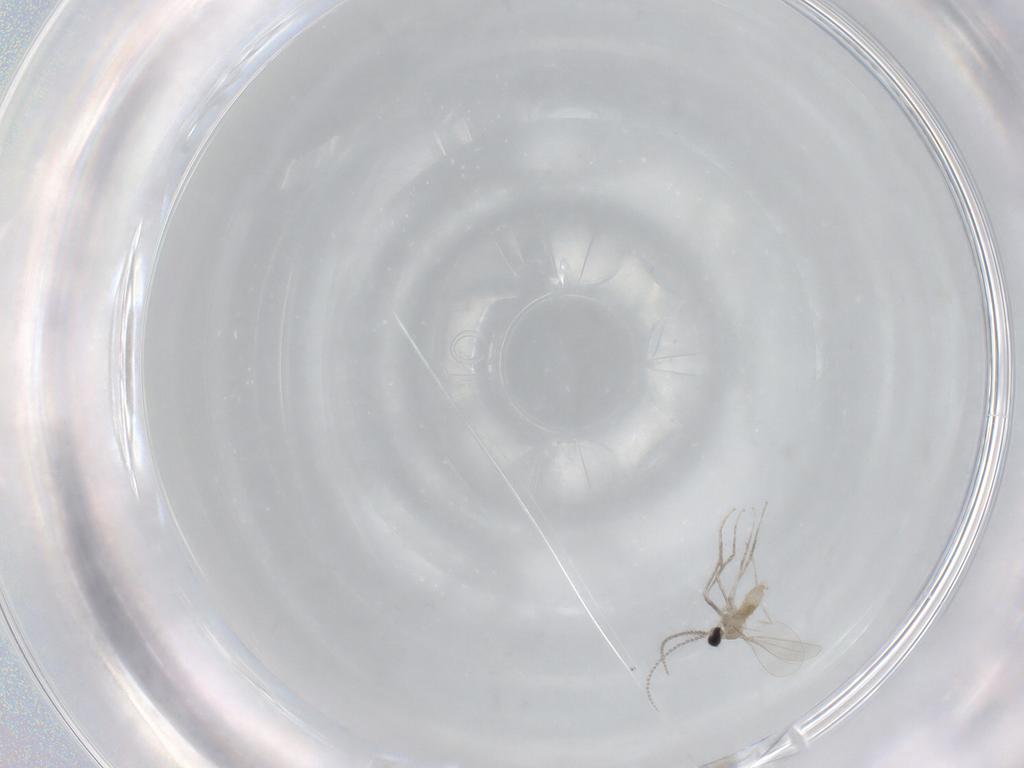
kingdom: Animalia
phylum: Arthropoda
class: Insecta
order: Diptera
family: Cecidomyiidae
